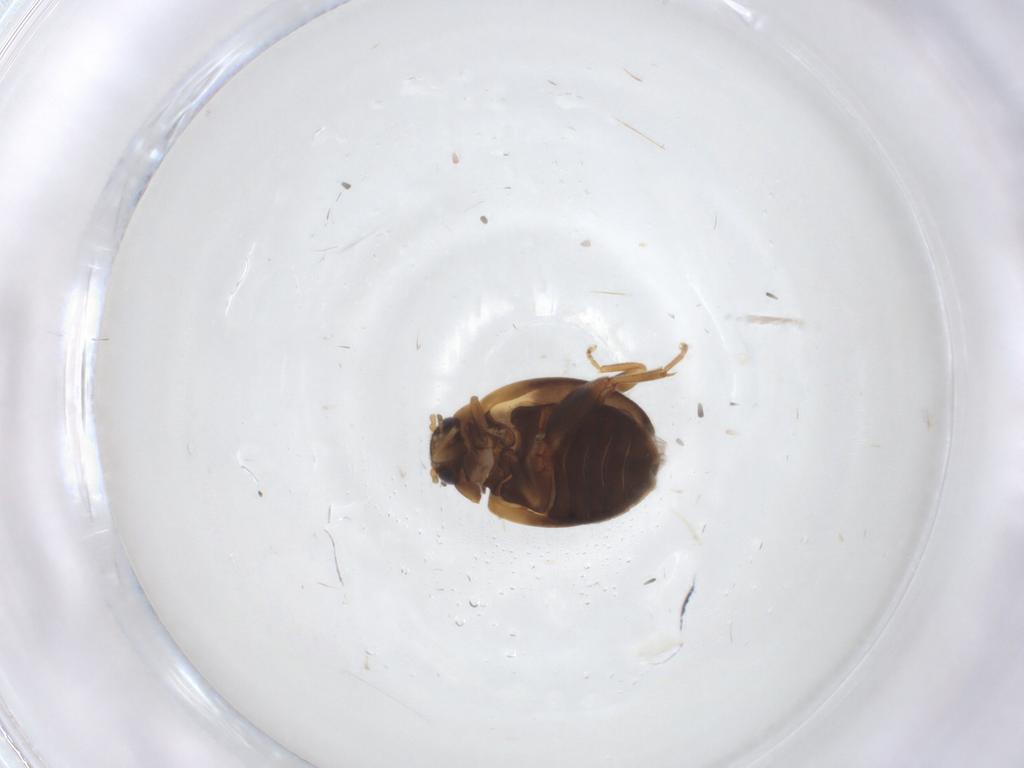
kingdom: Animalia
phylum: Arthropoda
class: Insecta
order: Coleoptera
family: Scirtidae
